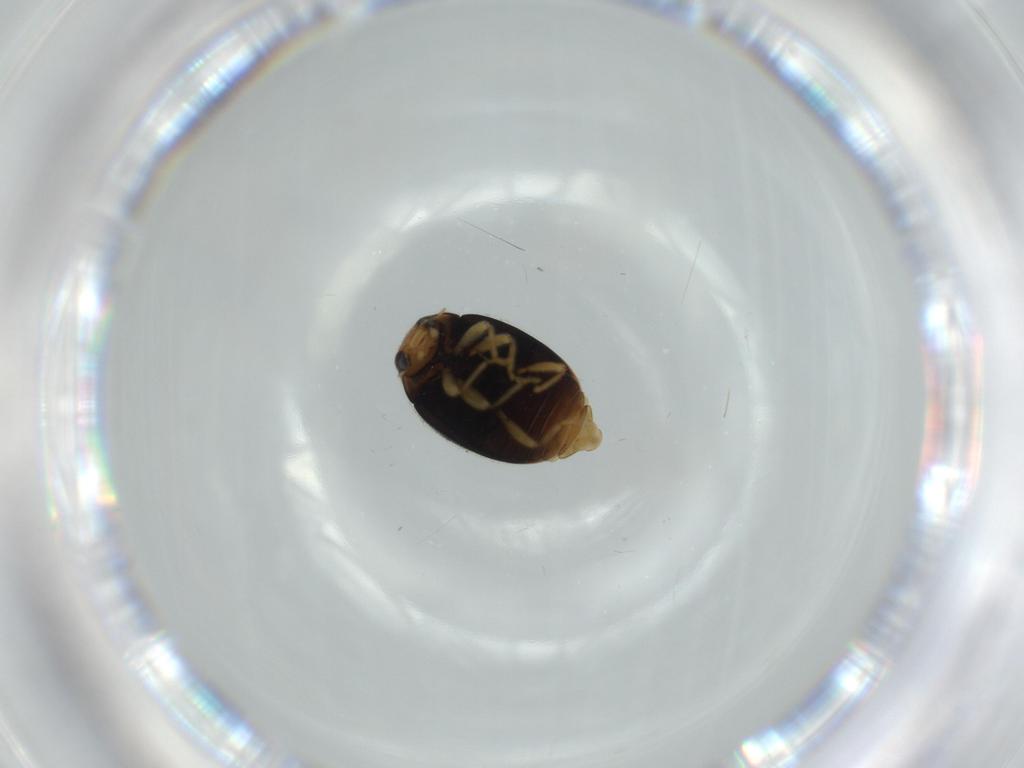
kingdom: Animalia
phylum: Arthropoda
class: Insecta
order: Coleoptera
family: Coccinellidae
